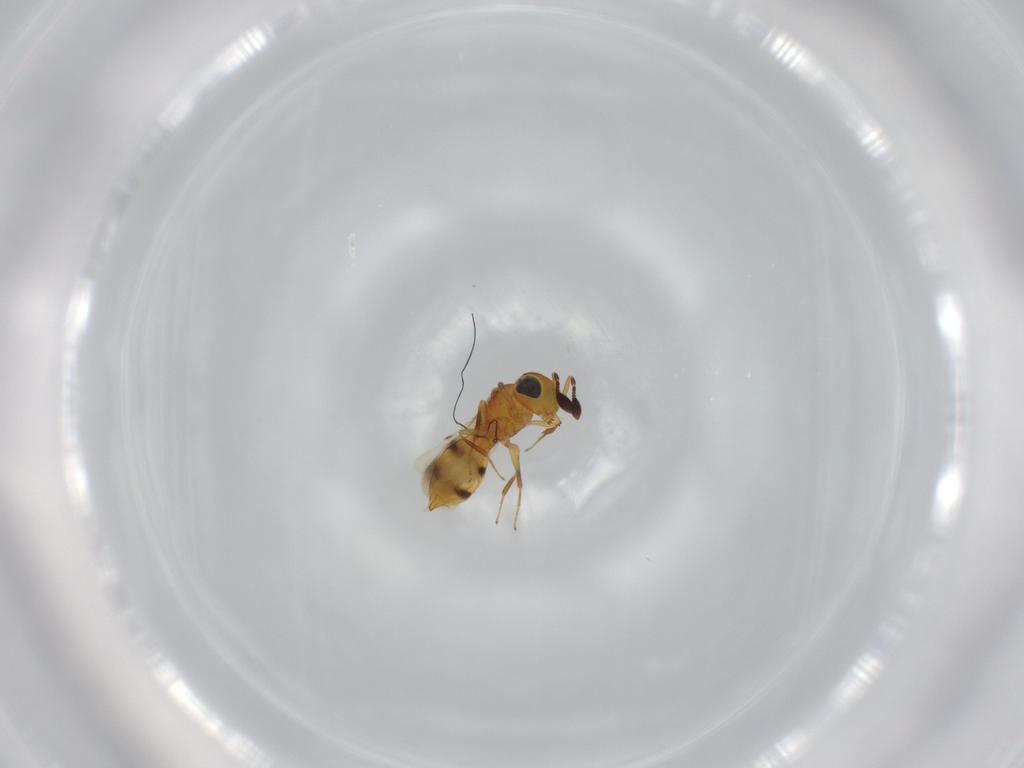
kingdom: Animalia
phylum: Arthropoda
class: Insecta
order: Hymenoptera
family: Scelionidae
